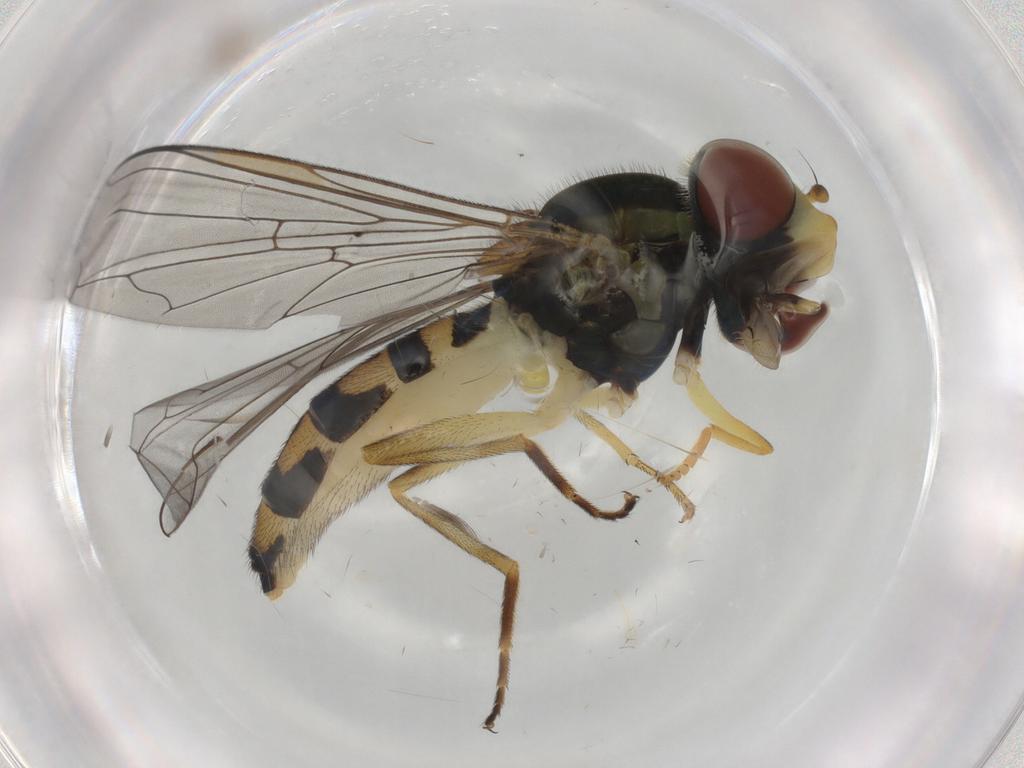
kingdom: Animalia
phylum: Arthropoda
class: Insecta
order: Diptera
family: Cecidomyiidae
